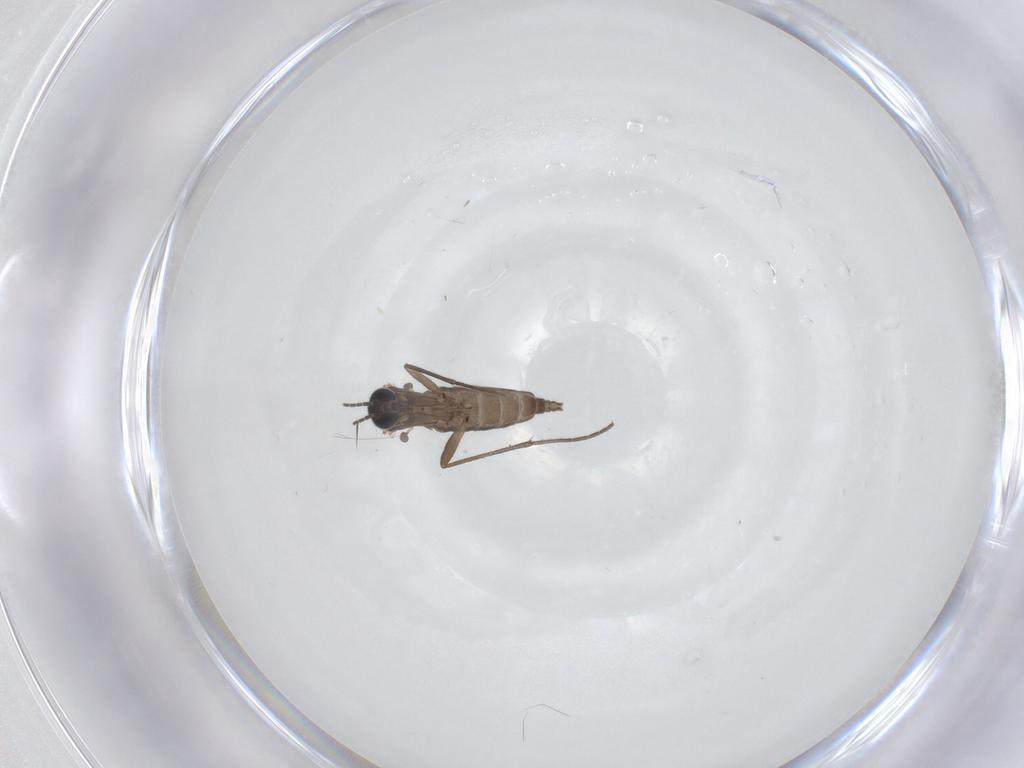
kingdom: Animalia
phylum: Arthropoda
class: Insecta
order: Diptera
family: Sciaridae
